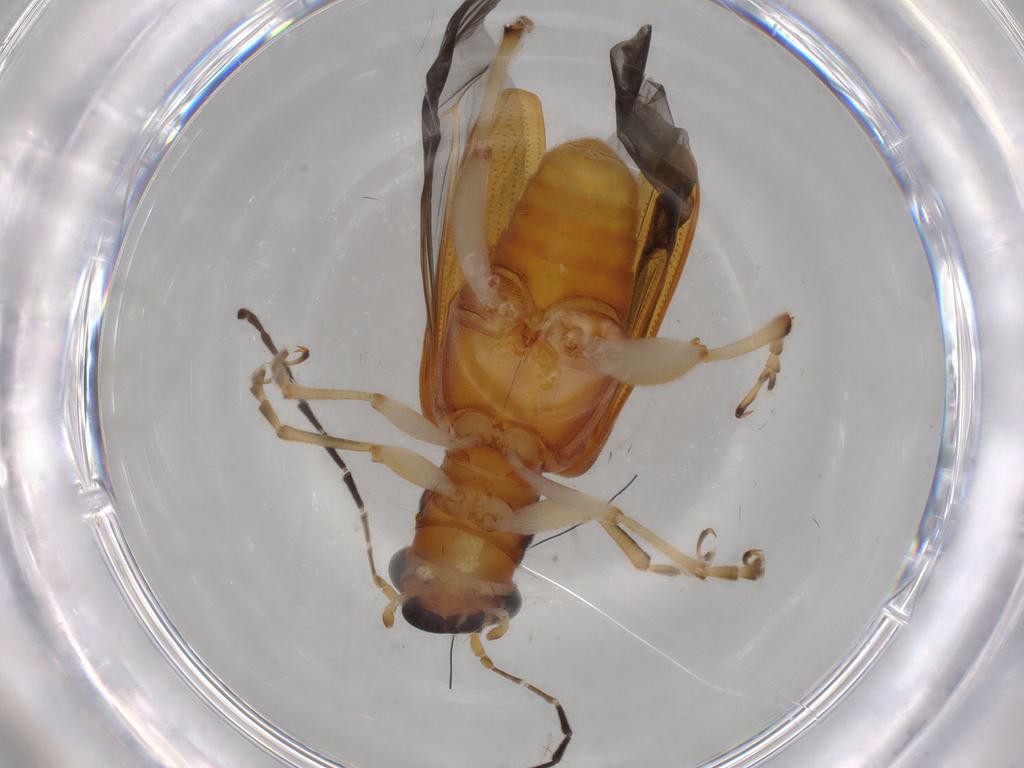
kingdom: Animalia
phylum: Arthropoda
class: Insecta
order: Coleoptera
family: Chrysomelidae
